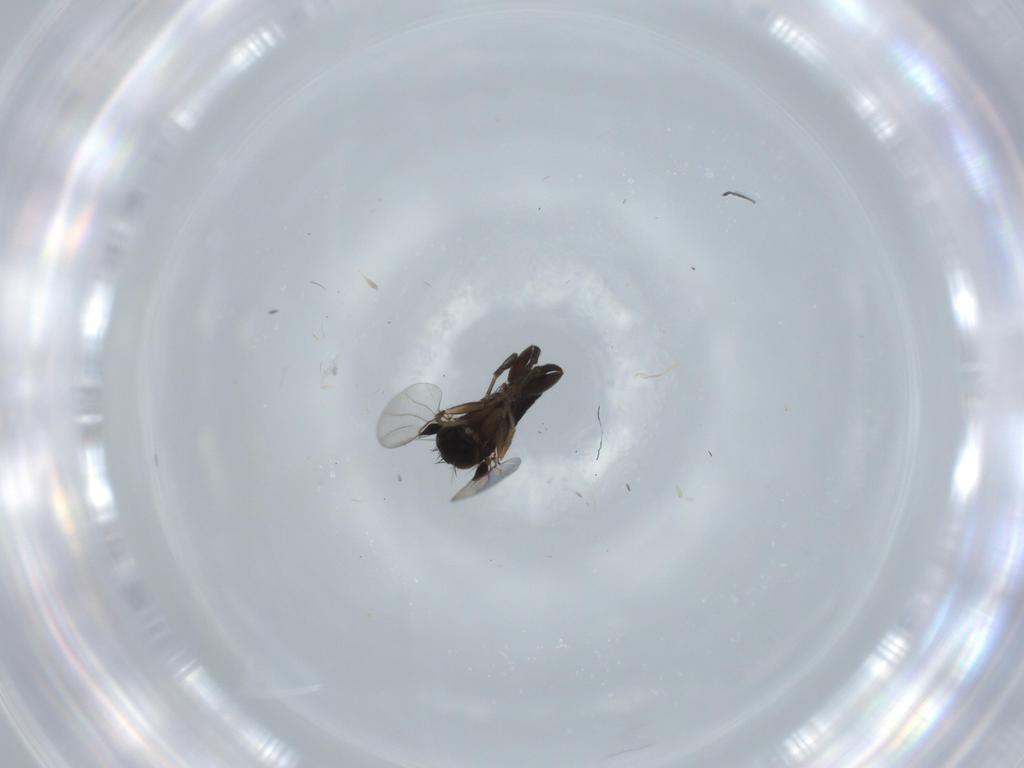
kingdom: Animalia
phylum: Arthropoda
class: Insecta
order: Diptera
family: Phoridae
